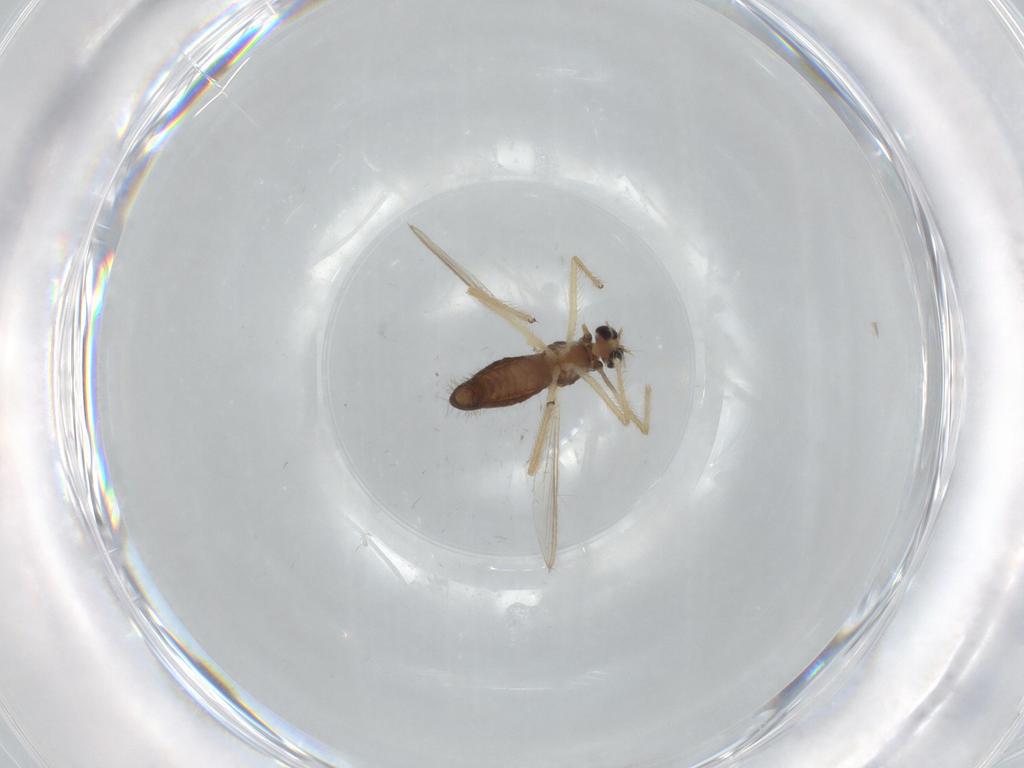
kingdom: Animalia
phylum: Arthropoda
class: Insecta
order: Diptera
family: Chironomidae
